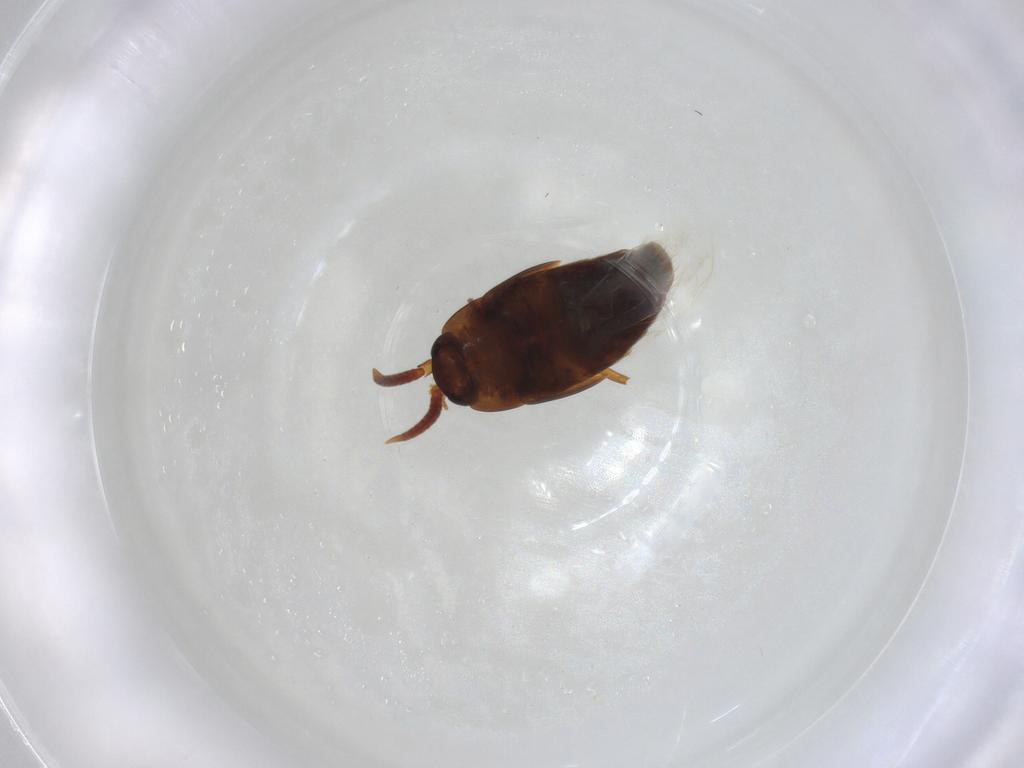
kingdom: Animalia
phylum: Arthropoda
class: Insecta
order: Coleoptera
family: Staphylinidae
